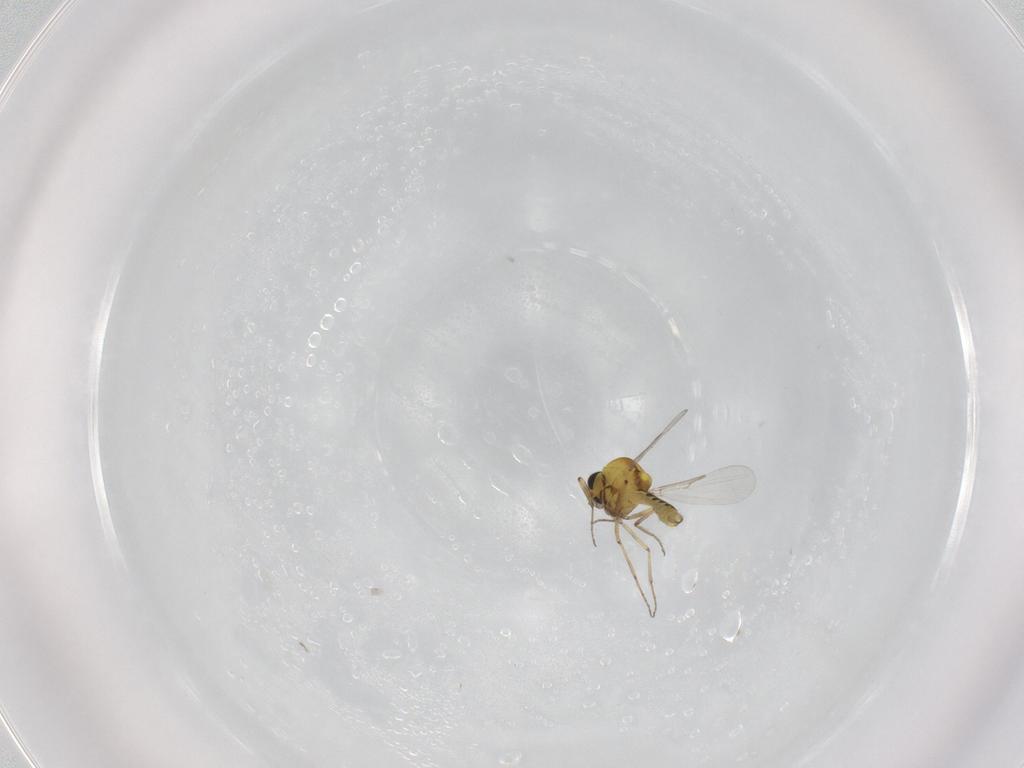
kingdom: Animalia
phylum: Arthropoda
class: Insecta
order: Diptera
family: Ceratopogonidae
